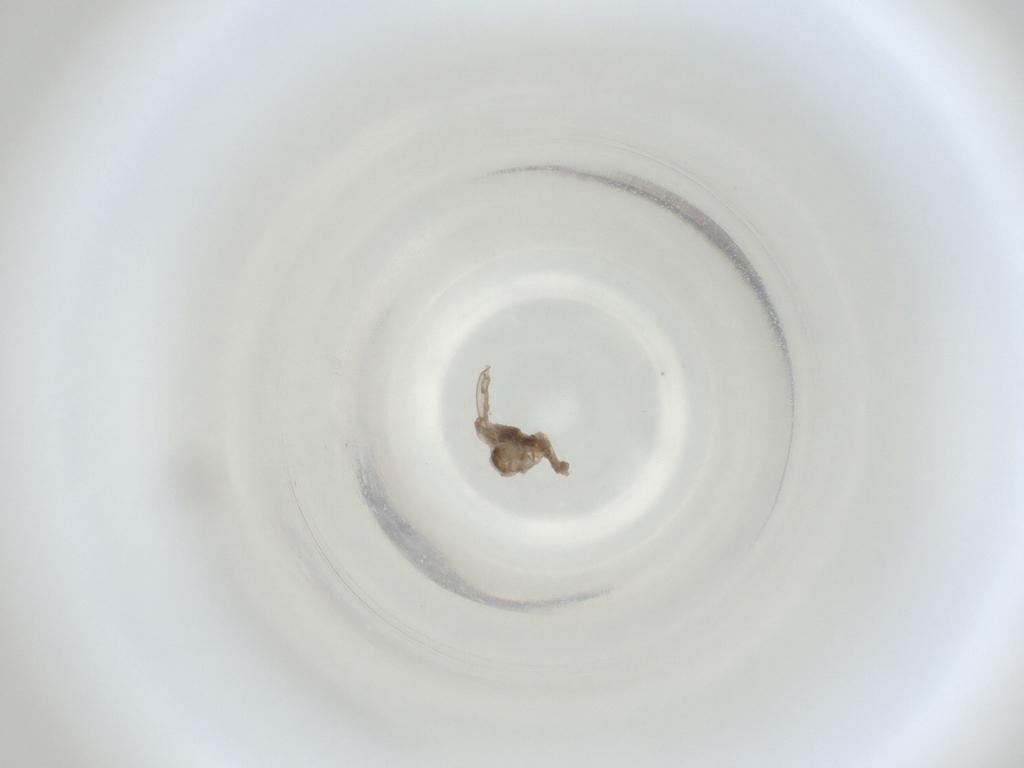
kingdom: Animalia
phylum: Arthropoda
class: Insecta
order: Diptera
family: Cecidomyiidae
